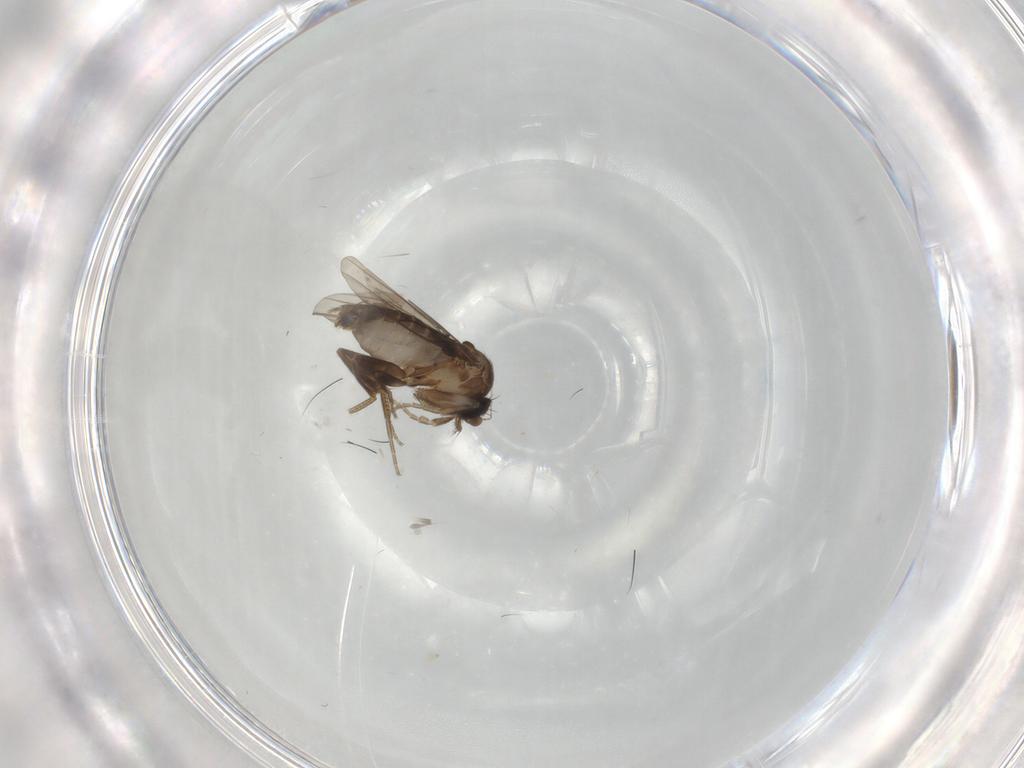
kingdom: Animalia
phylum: Arthropoda
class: Insecta
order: Diptera
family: Phoridae
